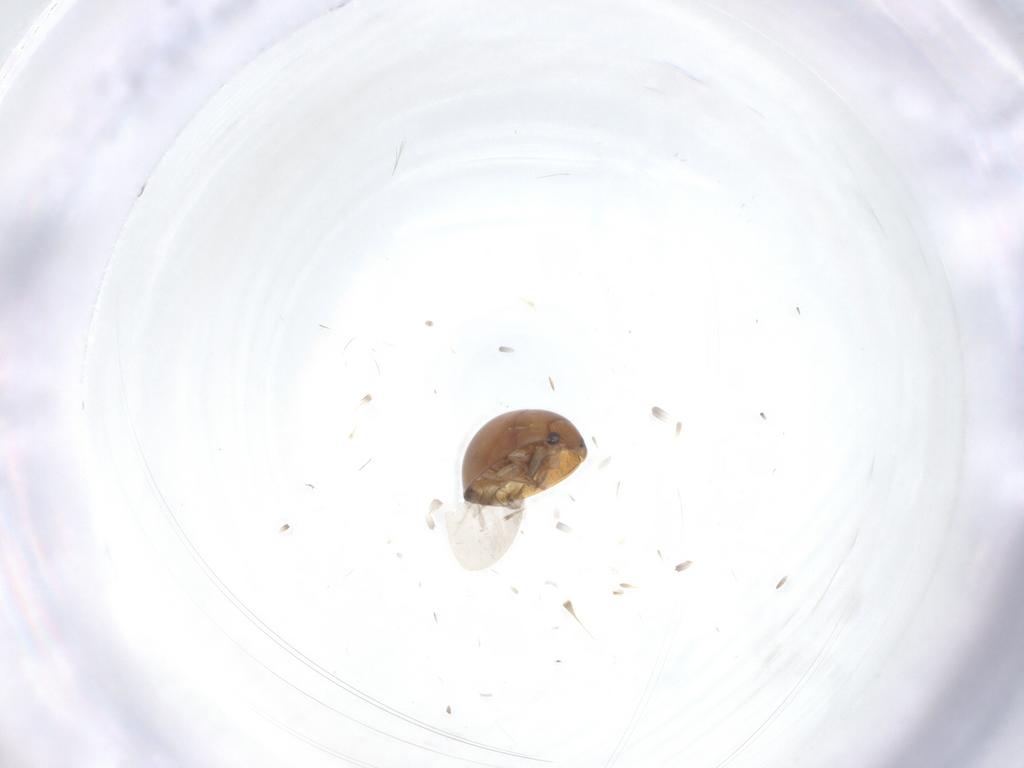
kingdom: Animalia
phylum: Arthropoda
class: Insecta
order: Coleoptera
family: Phalacridae
